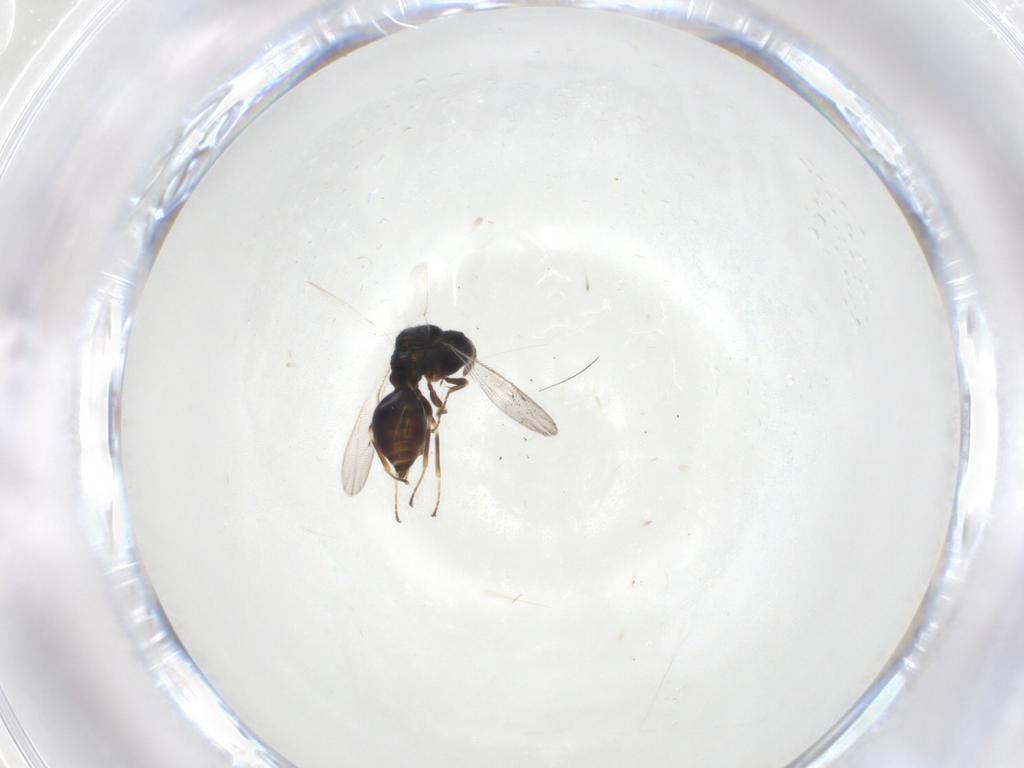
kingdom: Animalia
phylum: Arthropoda
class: Insecta
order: Hymenoptera
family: Pteromalidae
